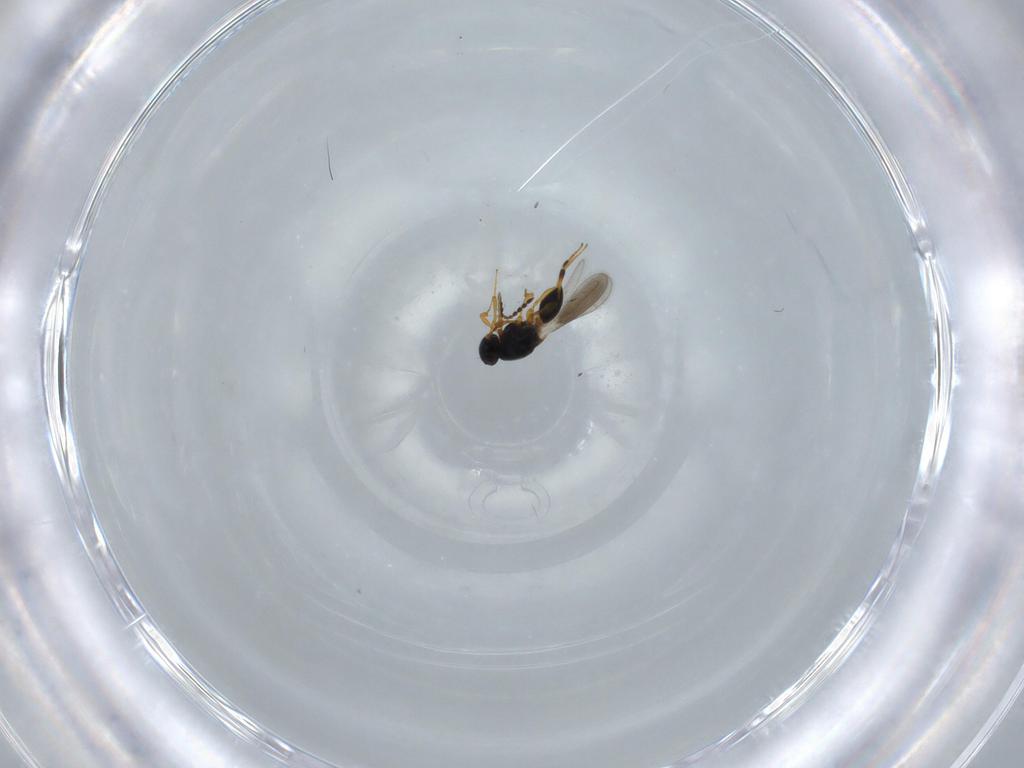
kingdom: Animalia
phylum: Arthropoda
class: Insecta
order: Hymenoptera
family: Platygastridae
